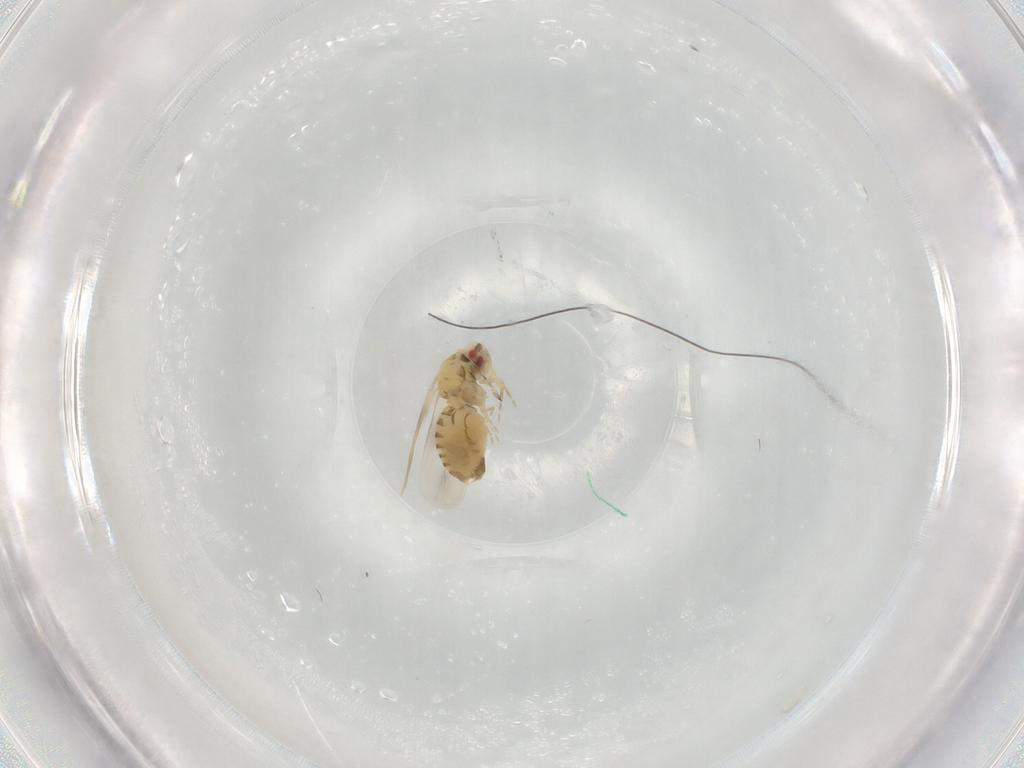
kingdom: Animalia
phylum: Arthropoda
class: Insecta
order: Hemiptera
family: Aleyrodidae
